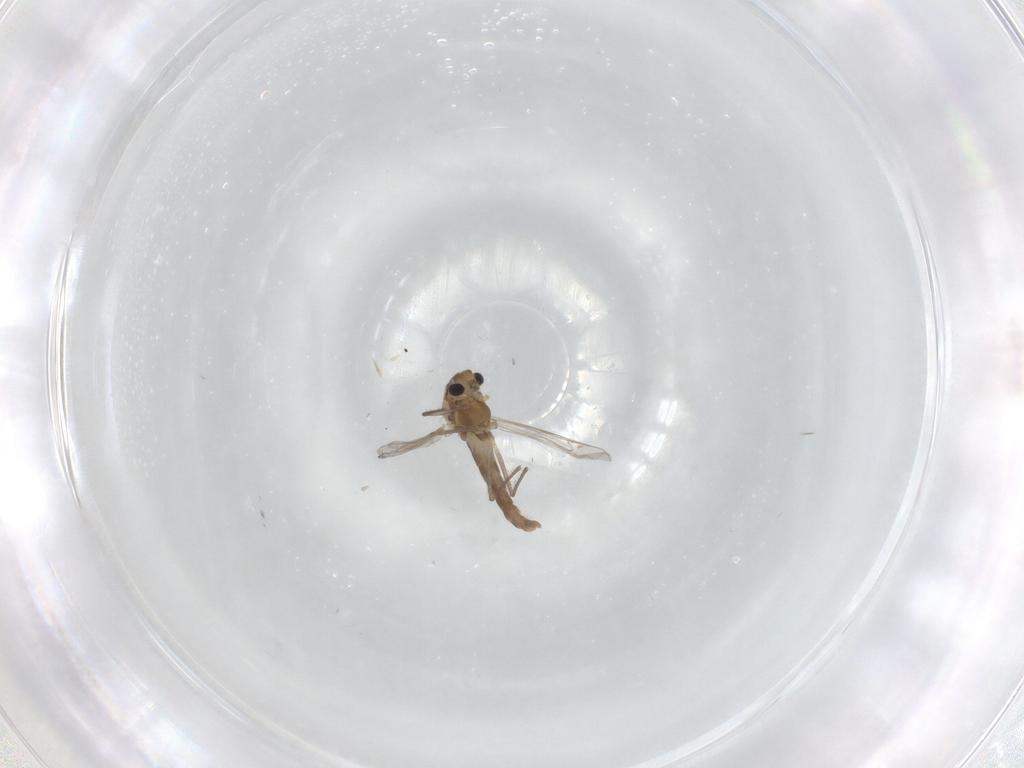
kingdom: Animalia
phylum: Arthropoda
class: Insecta
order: Diptera
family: Chironomidae
